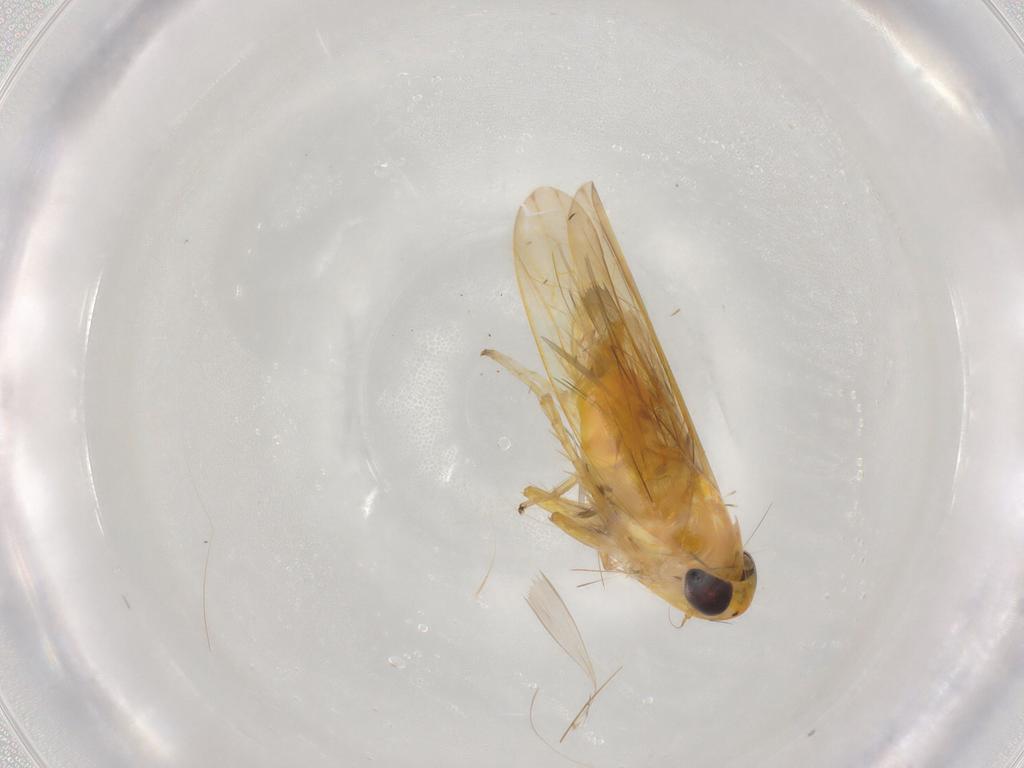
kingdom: Animalia
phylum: Arthropoda
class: Insecta
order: Hemiptera
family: Cicadellidae
